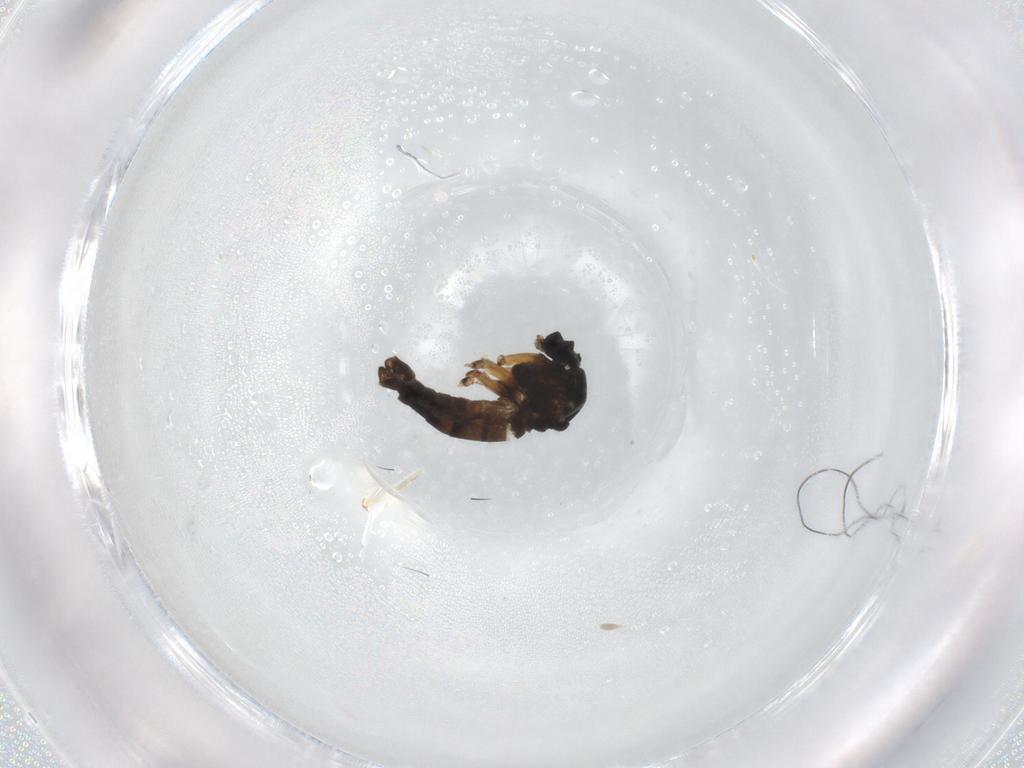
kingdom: Animalia
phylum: Arthropoda
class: Insecta
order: Diptera
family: Sciaridae
